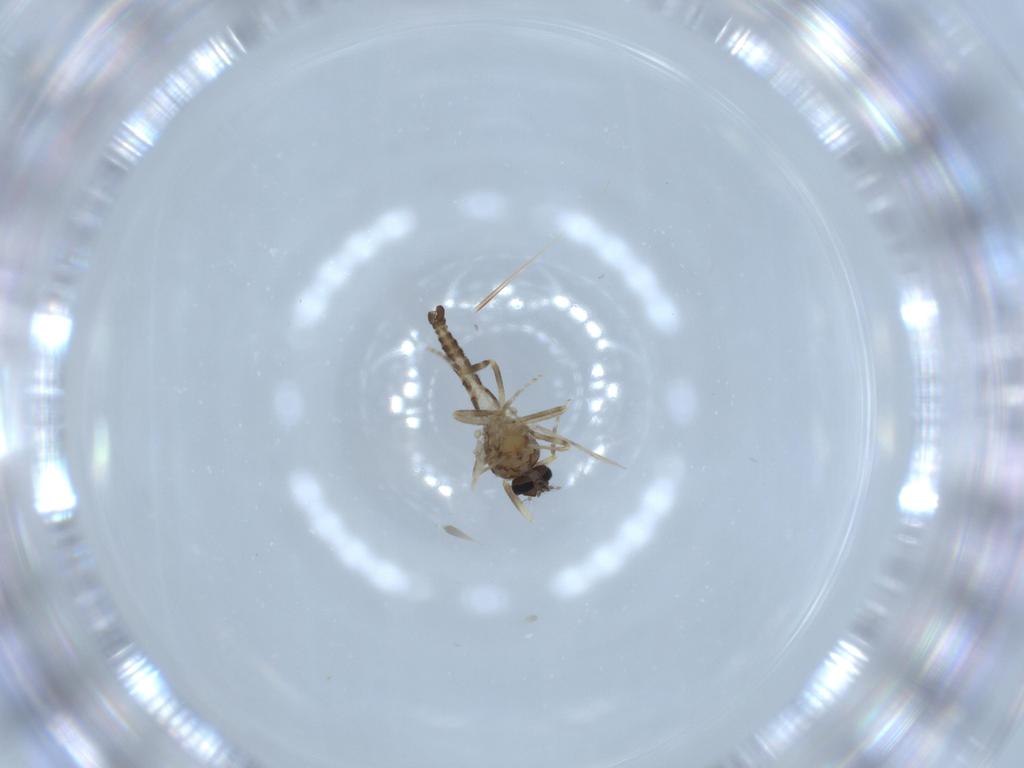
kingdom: Animalia
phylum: Arthropoda
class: Insecta
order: Diptera
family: Ceratopogonidae
